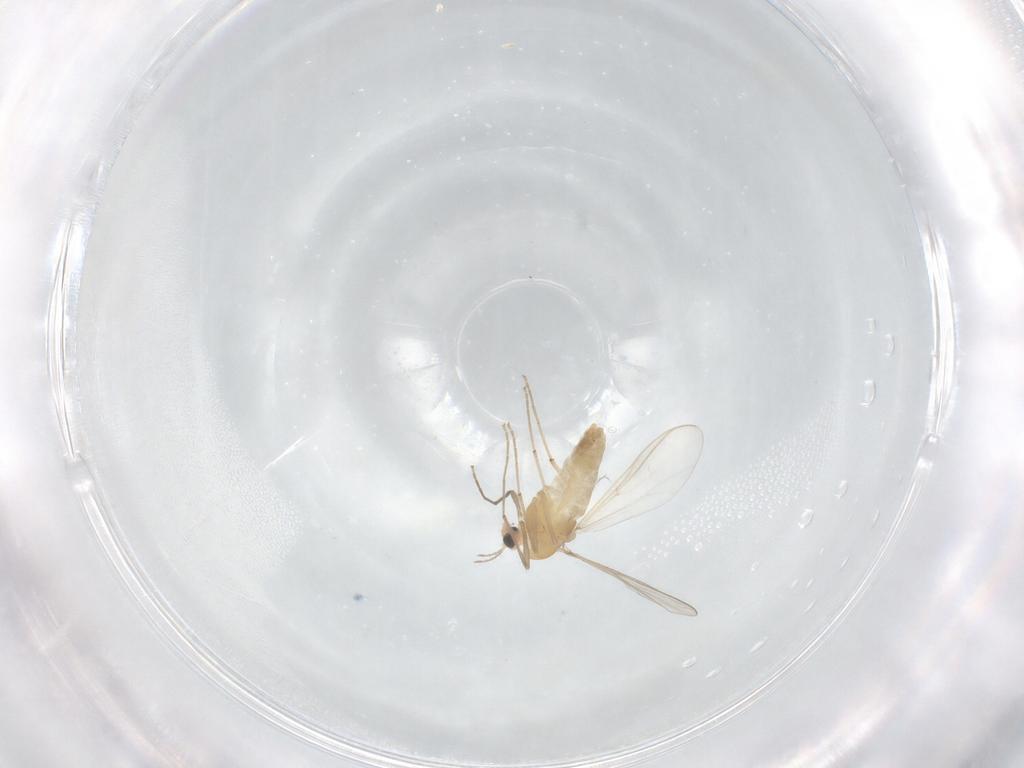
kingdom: Animalia
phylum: Arthropoda
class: Insecta
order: Diptera
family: Chironomidae
